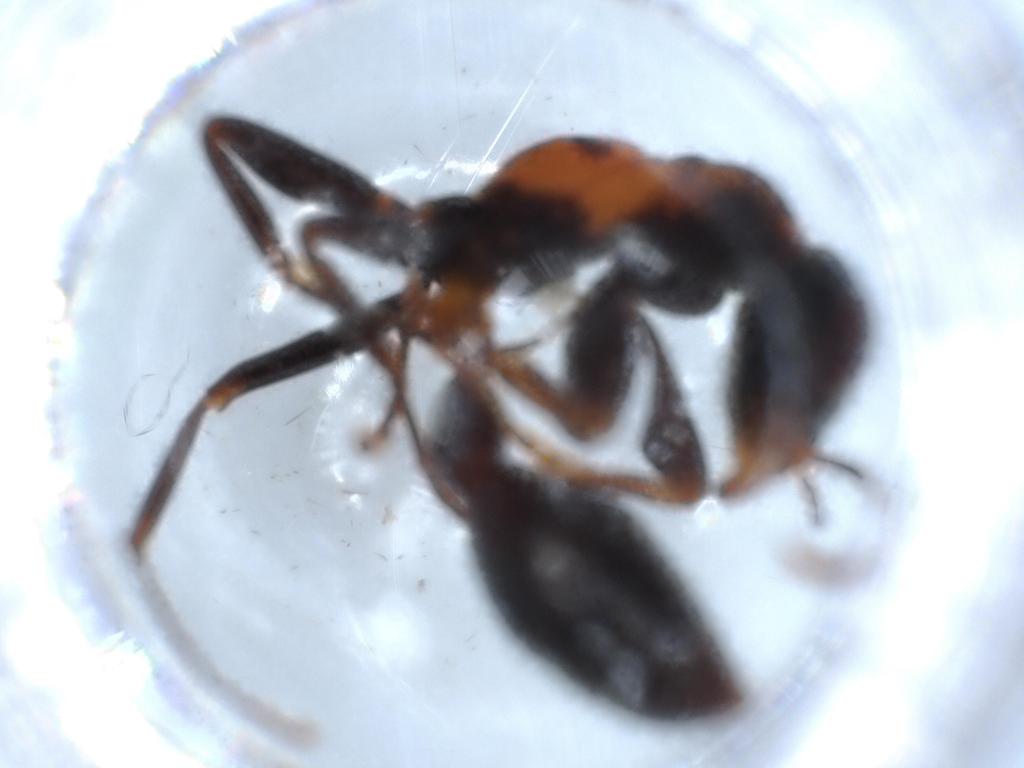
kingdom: Animalia
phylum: Arthropoda
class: Insecta
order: Hymenoptera
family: Formicidae
